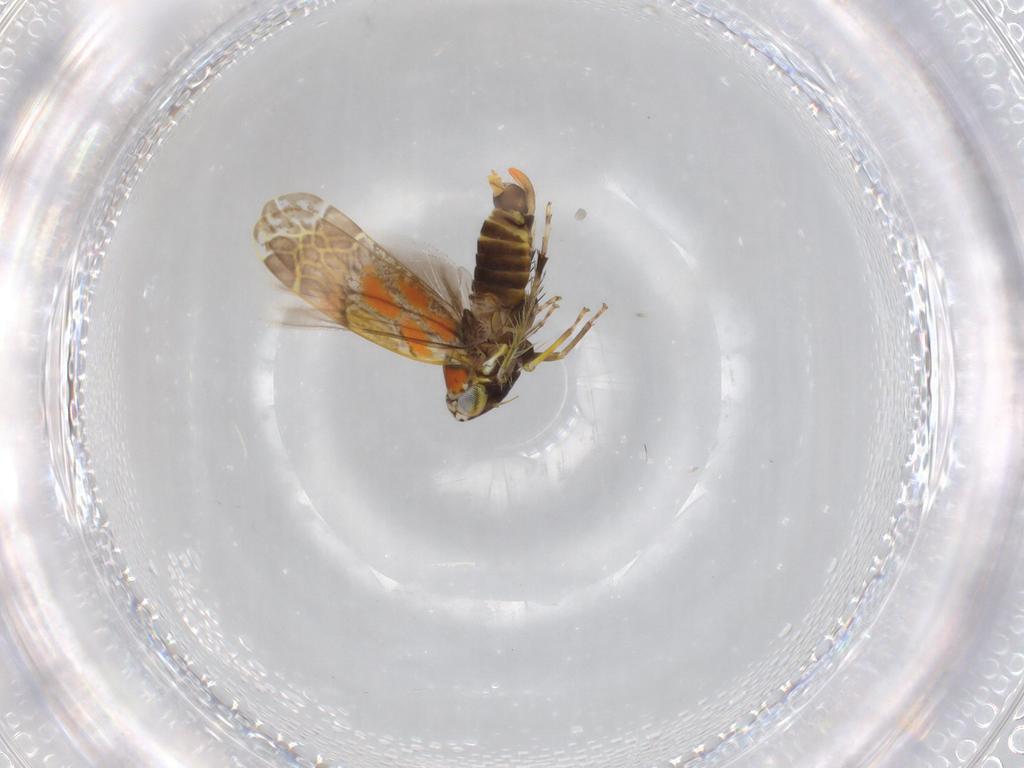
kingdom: Animalia
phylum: Arthropoda
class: Insecta
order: Hemiptera
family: Cicadellidae
